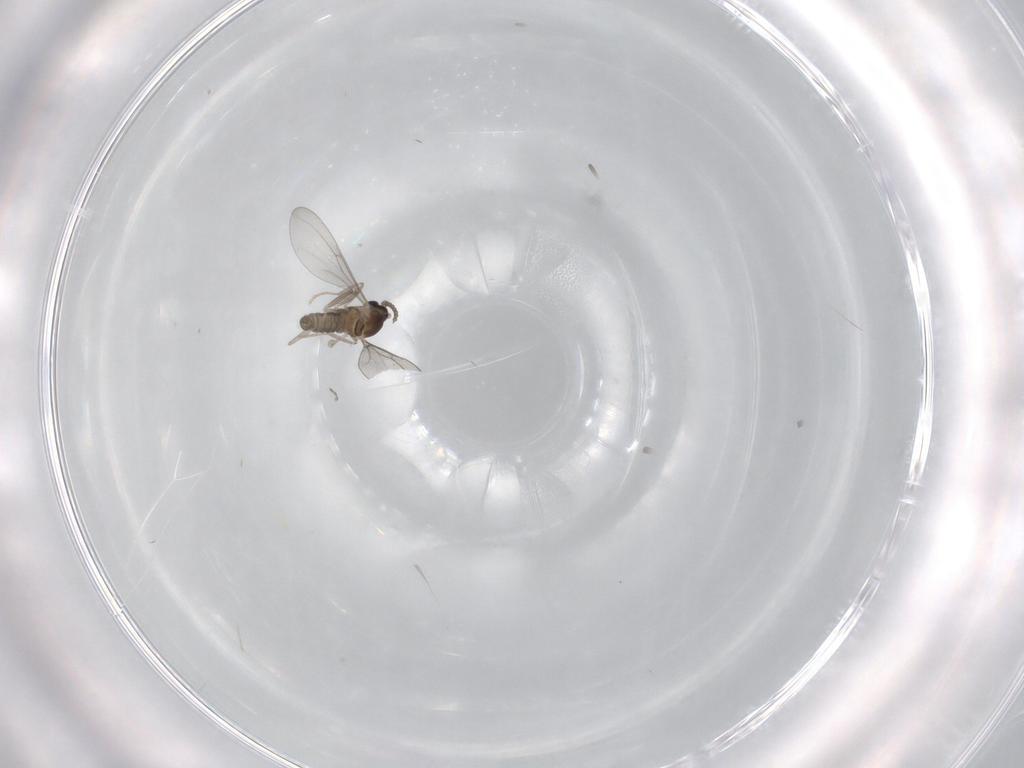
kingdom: Animalia
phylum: Arthropoda
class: Insecta
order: Diptera
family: Cecidomyiidae
